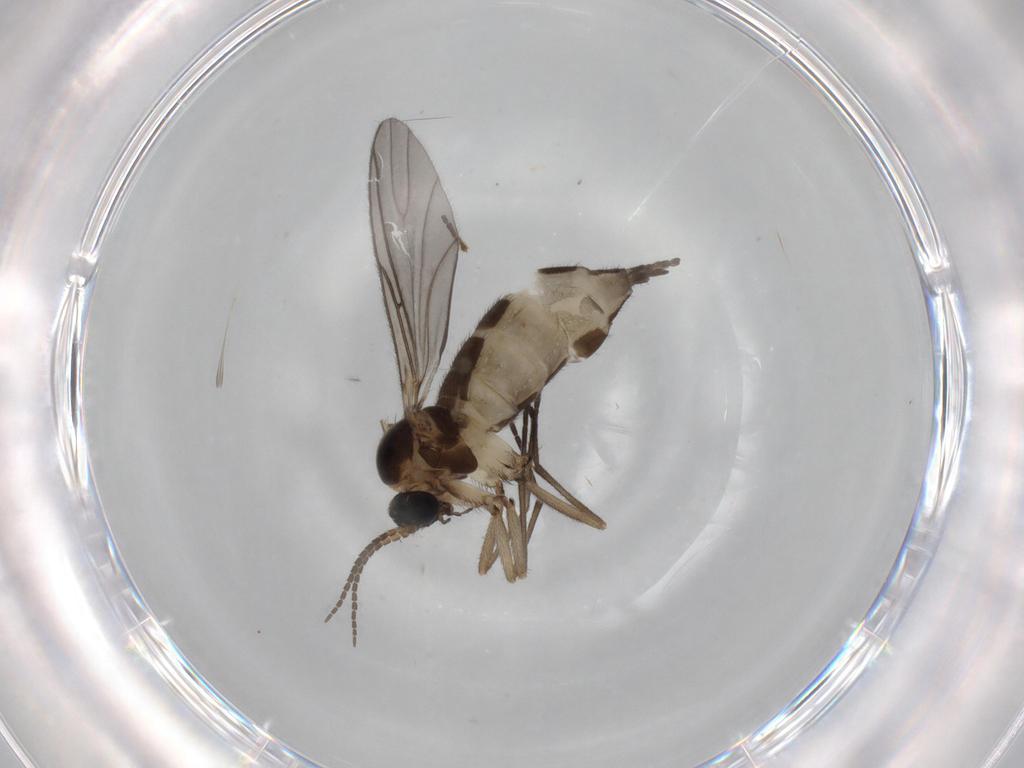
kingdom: Animalia
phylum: Arthropoda
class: Insecta
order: Diptera
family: Sciaridae
